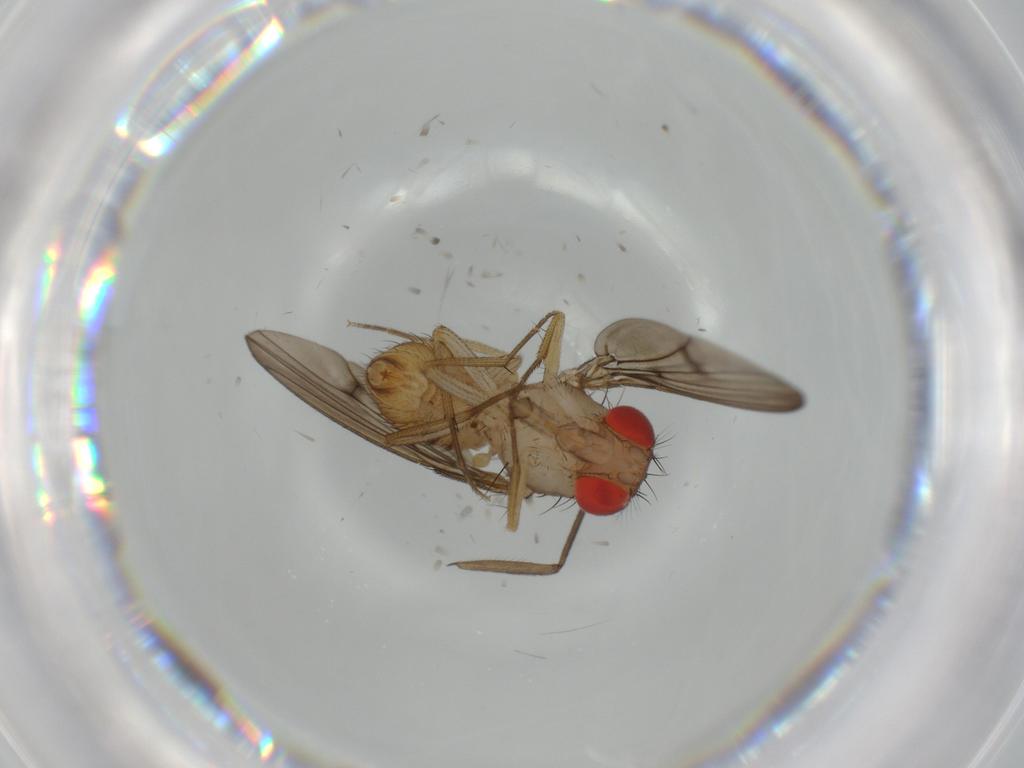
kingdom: Animalia
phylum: Arthropoda
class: Insecta
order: Diptera
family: Drosophilidae
